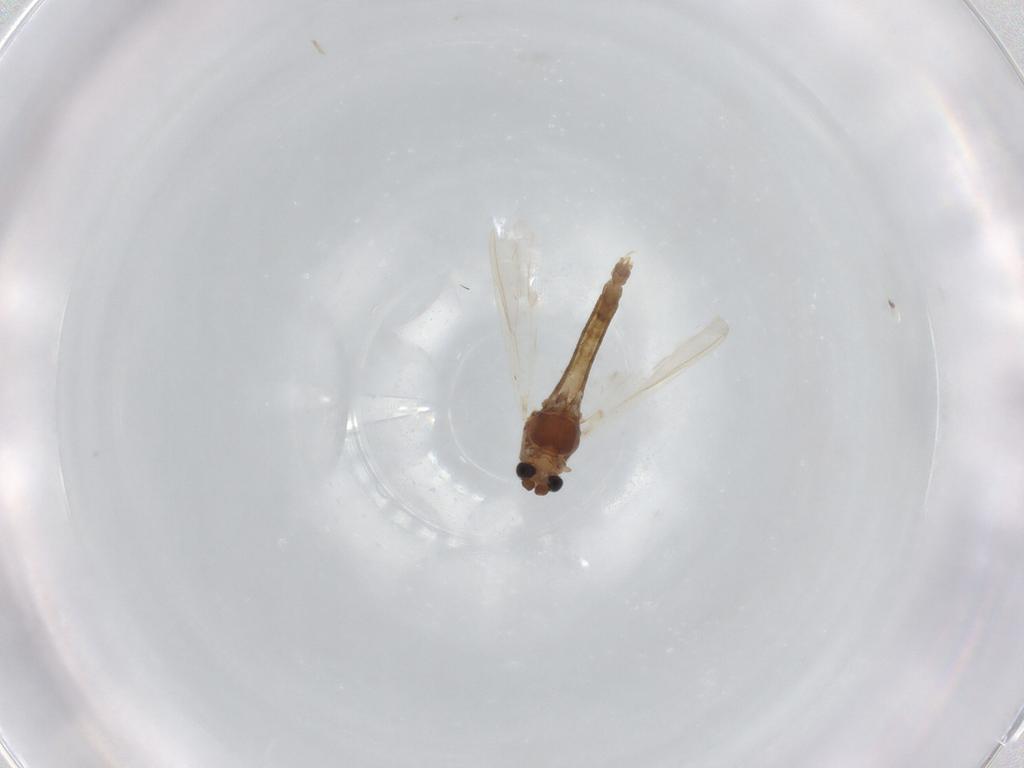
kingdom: Animalia
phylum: Arthropoda
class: Insecta
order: Diptera
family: Chironomidae
